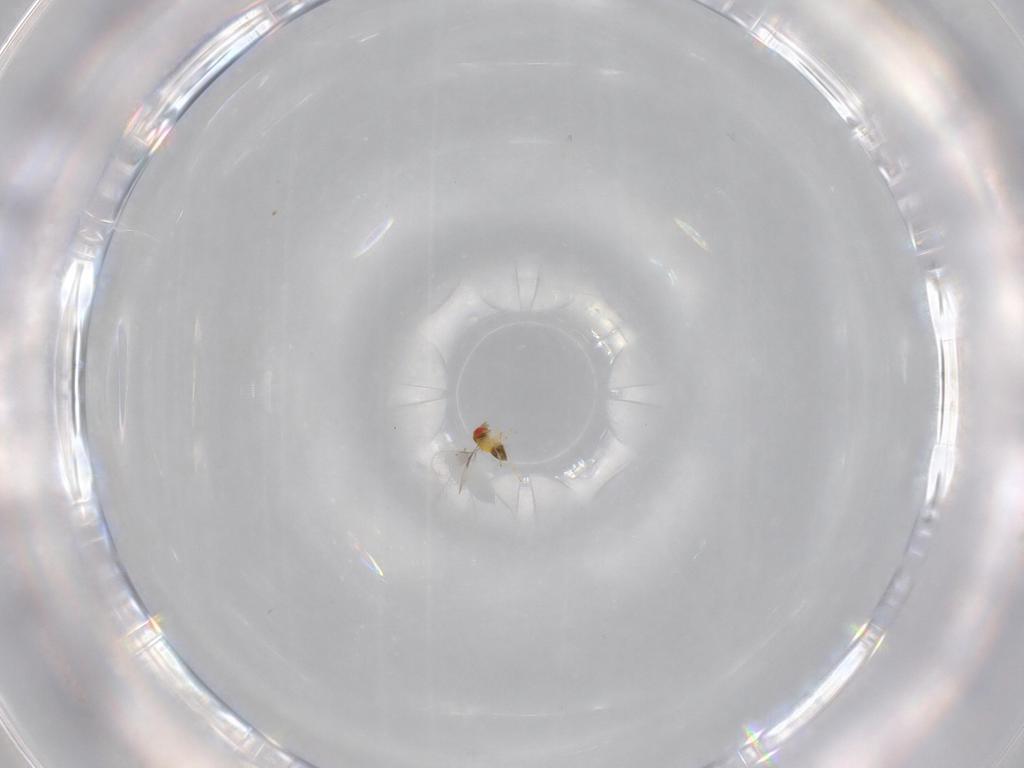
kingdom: Animalia
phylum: Arthropoda
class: Insecta
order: Hymenoptera
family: Trichogrammatidae
